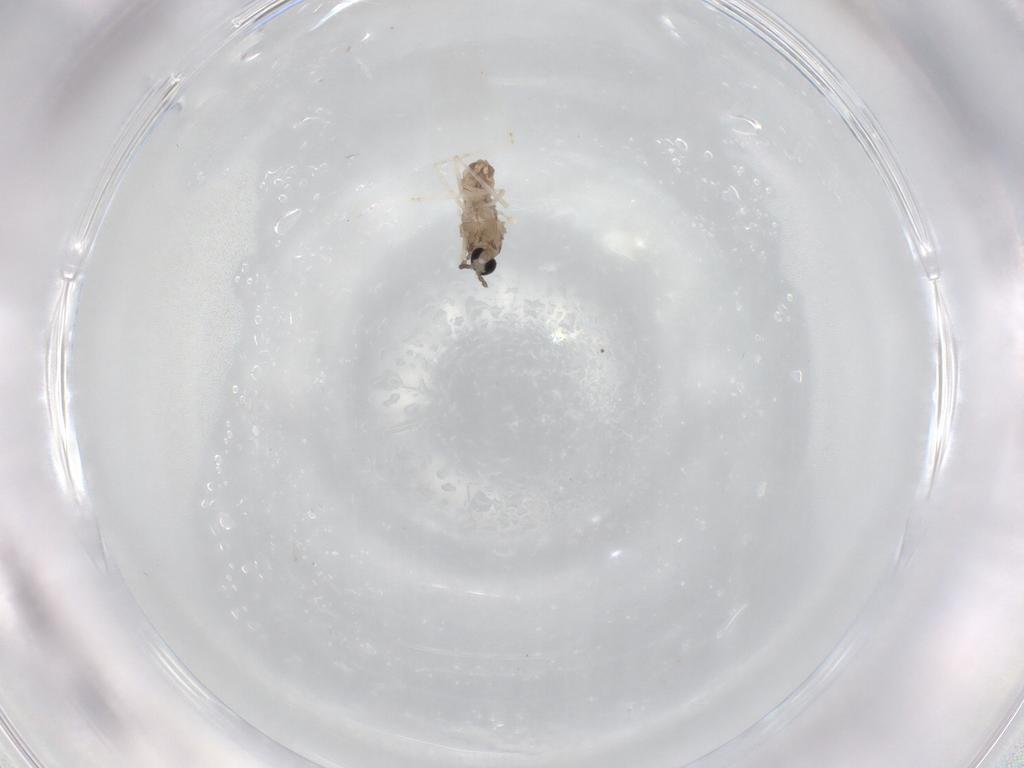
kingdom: Animalia
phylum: Arthropoda
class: Insecta
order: Diptera
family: Cecidomyiidae
